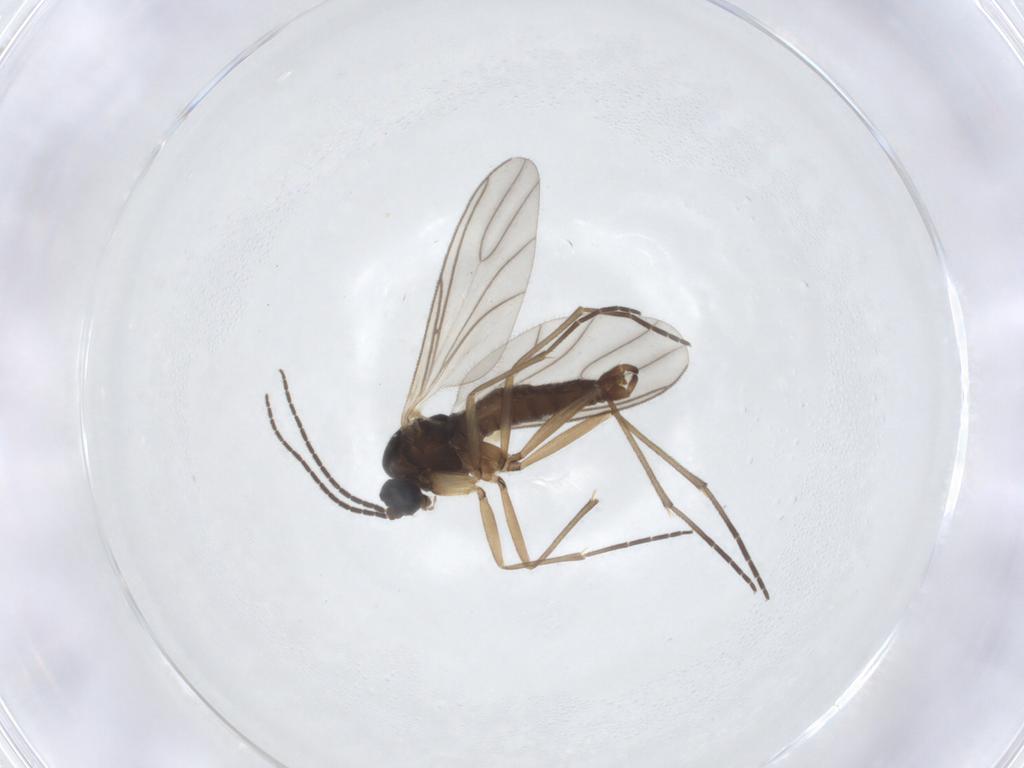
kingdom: Animalia
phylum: Arthropoda
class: Insecta
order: Diptera
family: Sciaridae
